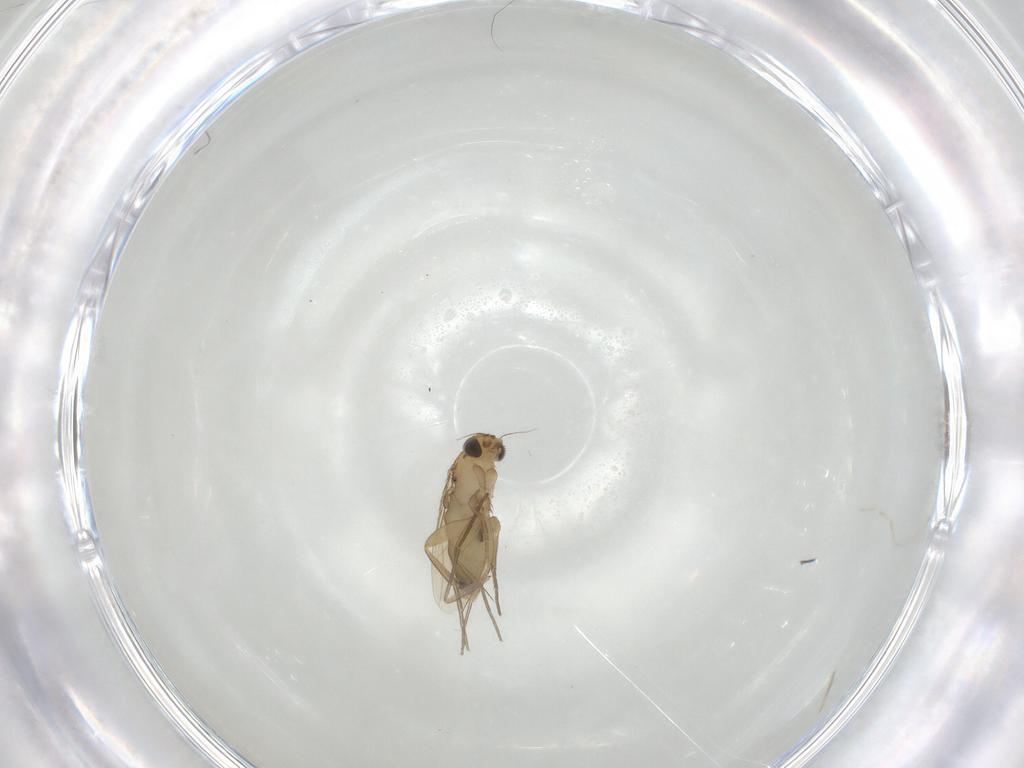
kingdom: Animalia
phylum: Arthropoda
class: Insecta
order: Diptera
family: Phoridae
